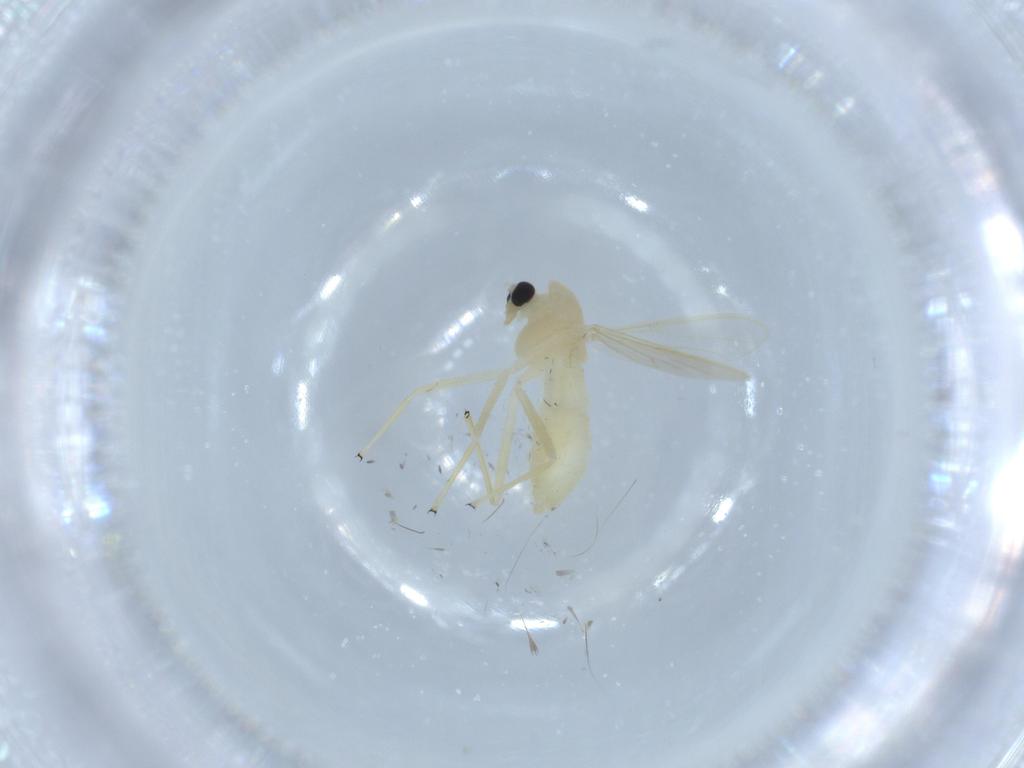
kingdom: Animalia
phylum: Arthropoda
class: Insecta
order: Diptera
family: Chironomidae
